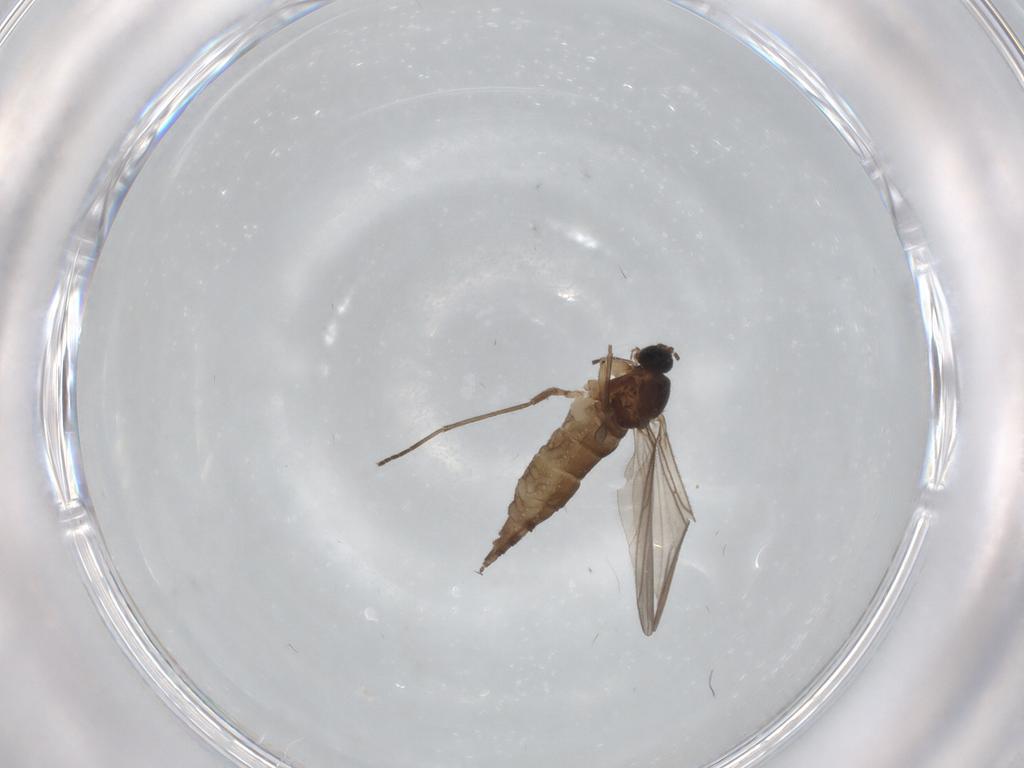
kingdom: Animalia
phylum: Arthropoda
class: Insecta
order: Diptera
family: Sciaridae
